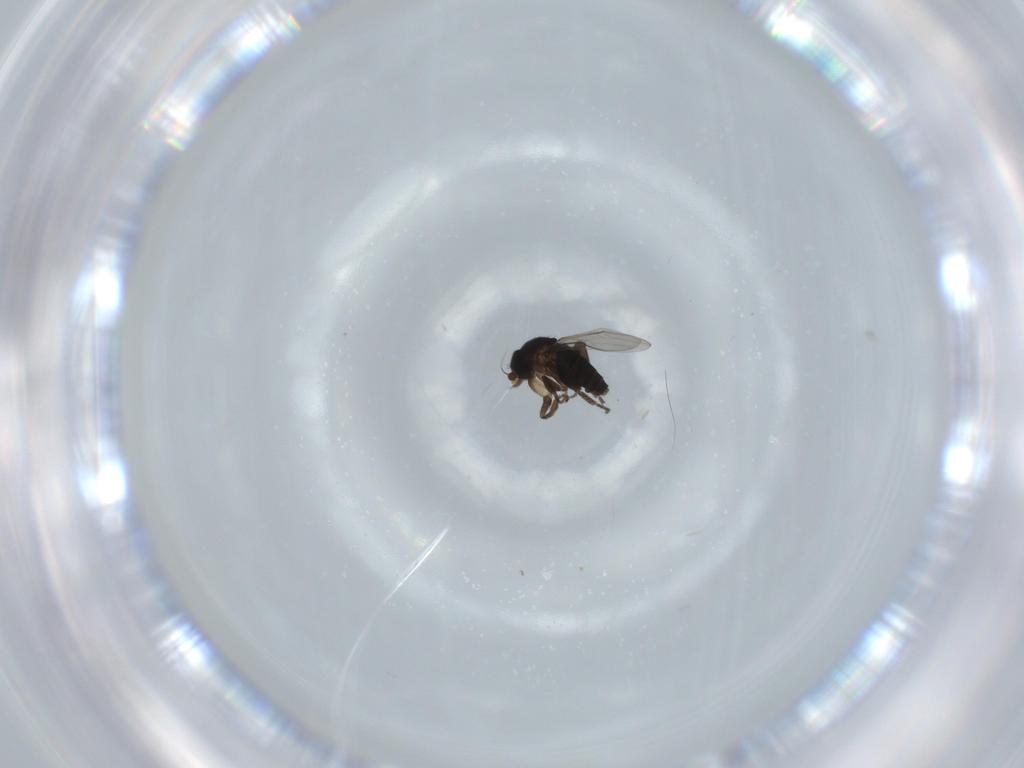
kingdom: Animalia
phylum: Arthropoda
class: Insecta
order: Diptera
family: Phoridae
